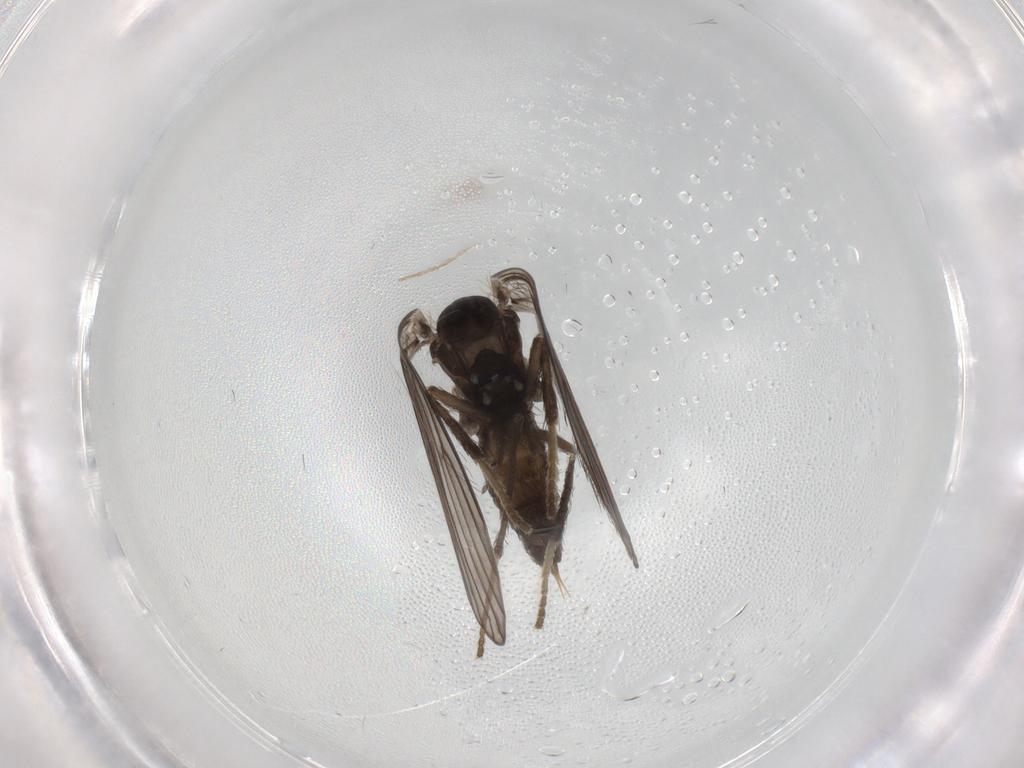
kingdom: Animalia
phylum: Arthropoda
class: Insecta
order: Diptera
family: Psychodidae
